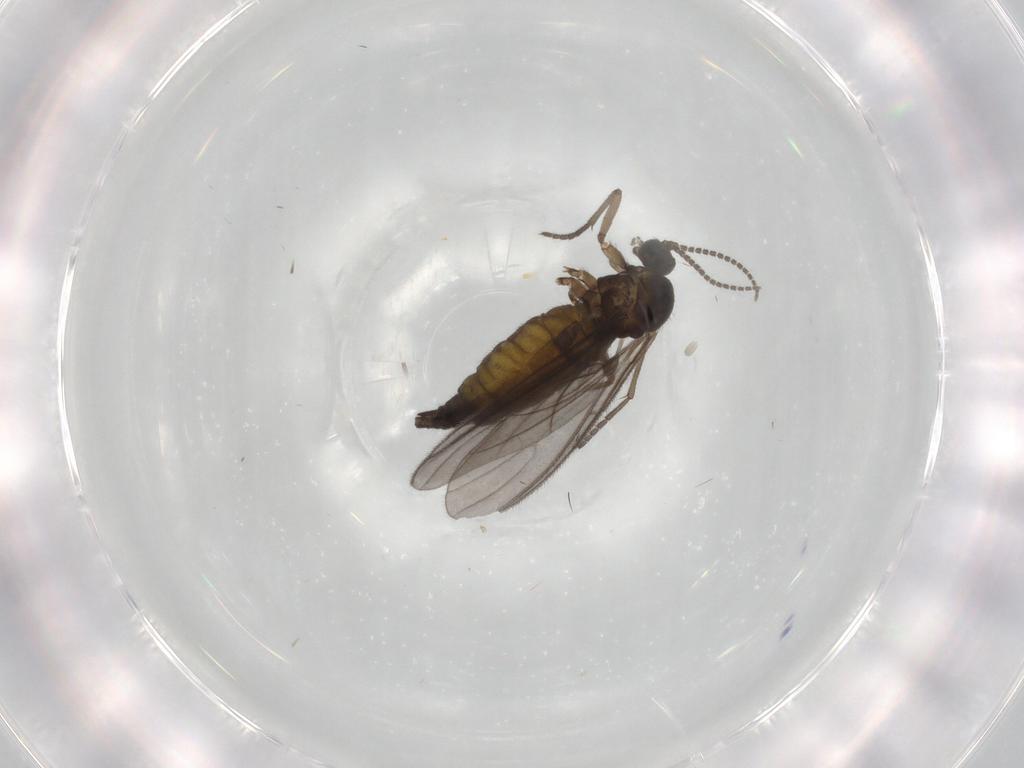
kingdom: Animalia
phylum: Arthropoda
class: Insecta
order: Diptera
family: Sciaridae
